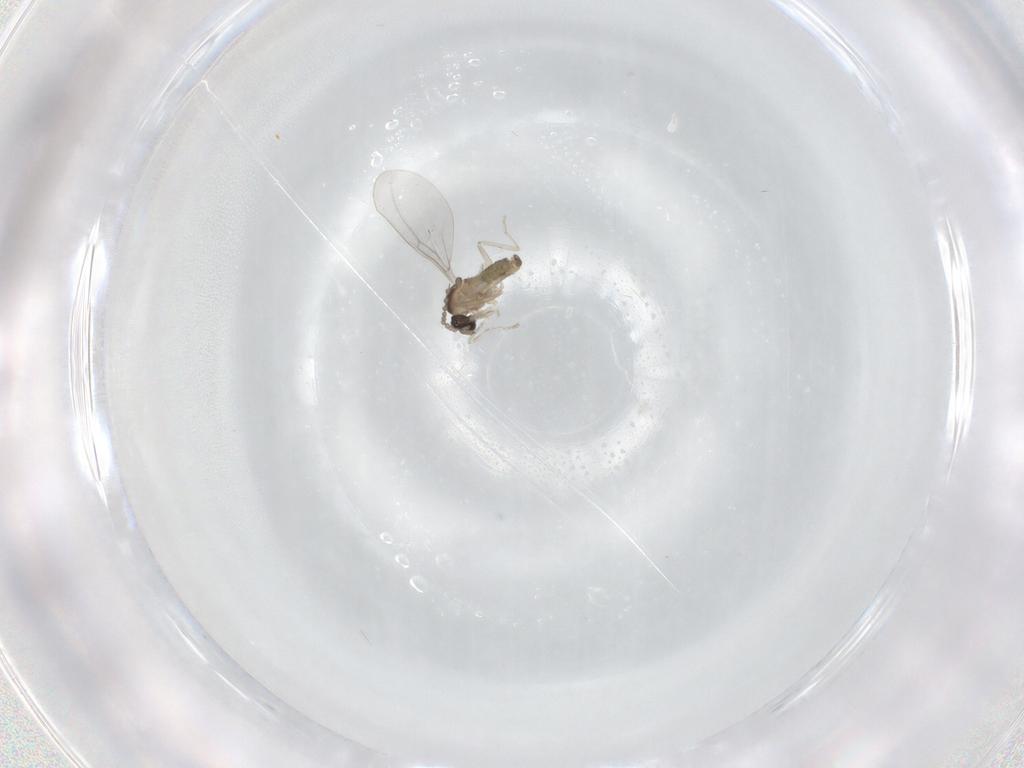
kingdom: Animalia
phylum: Arthropoda
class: Insecta
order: Diptera
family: Cecidomyiidae
